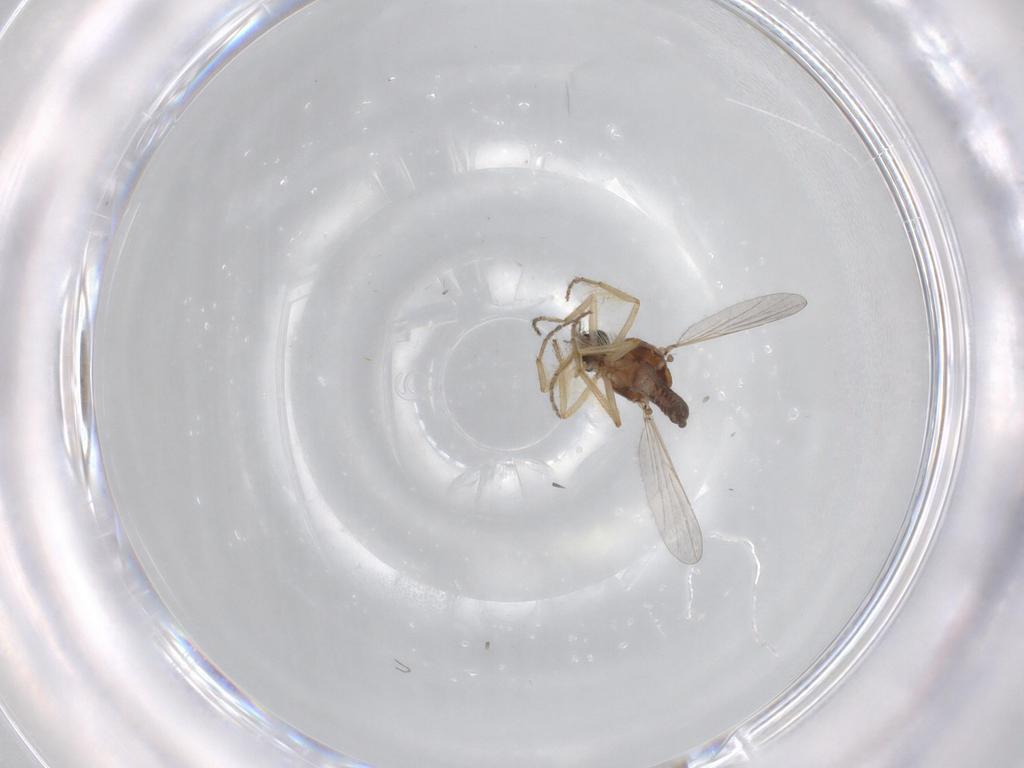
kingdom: Animalia
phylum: Arthropoda
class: Insecta
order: Diptera
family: Ceratopogonidae
